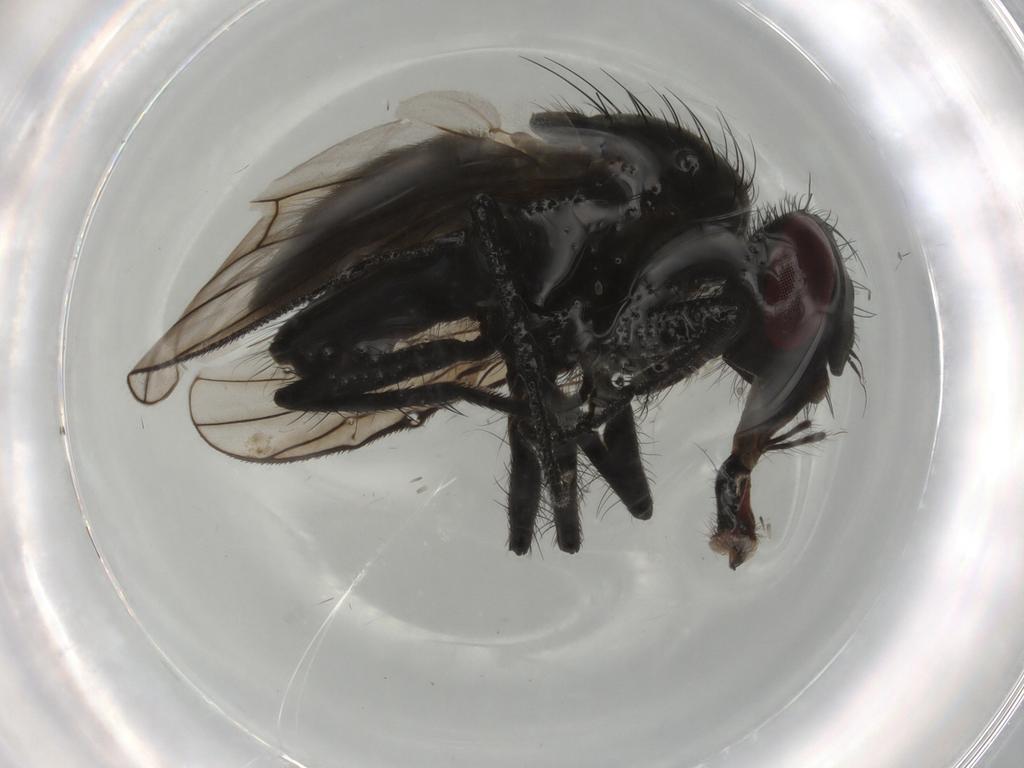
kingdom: Animalia
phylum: Arthropoda
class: Insecta
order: Diptera
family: Muscidae
